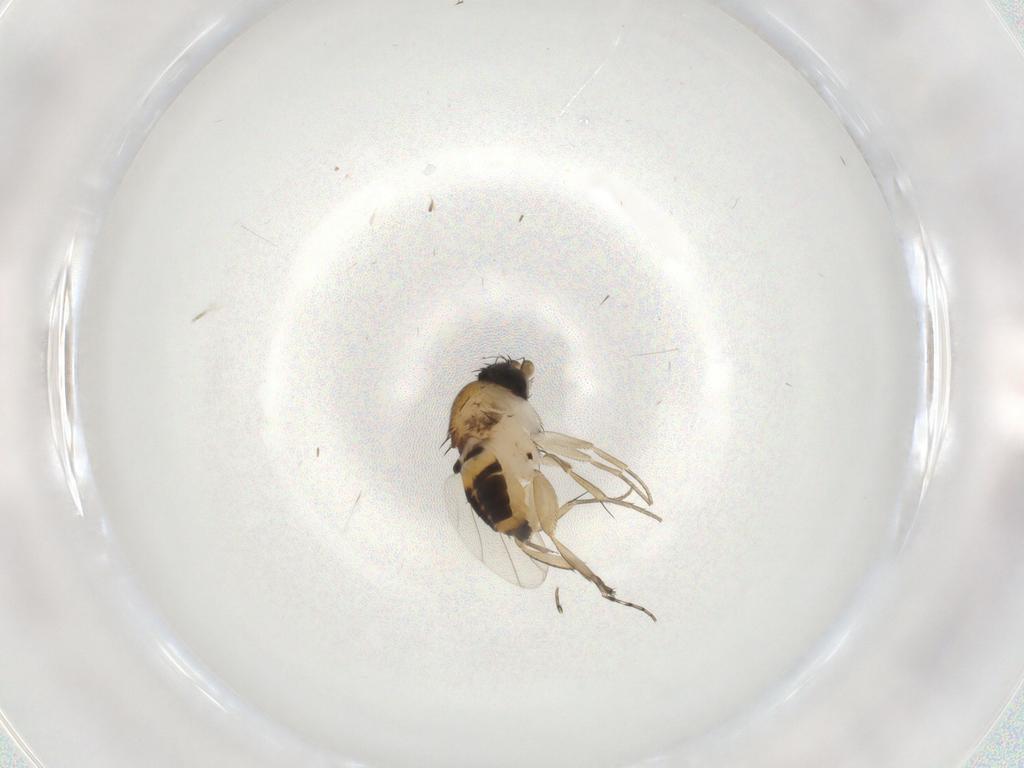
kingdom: Animalia
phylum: Arthropoda
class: Insecta
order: Diptera
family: Phoridae
